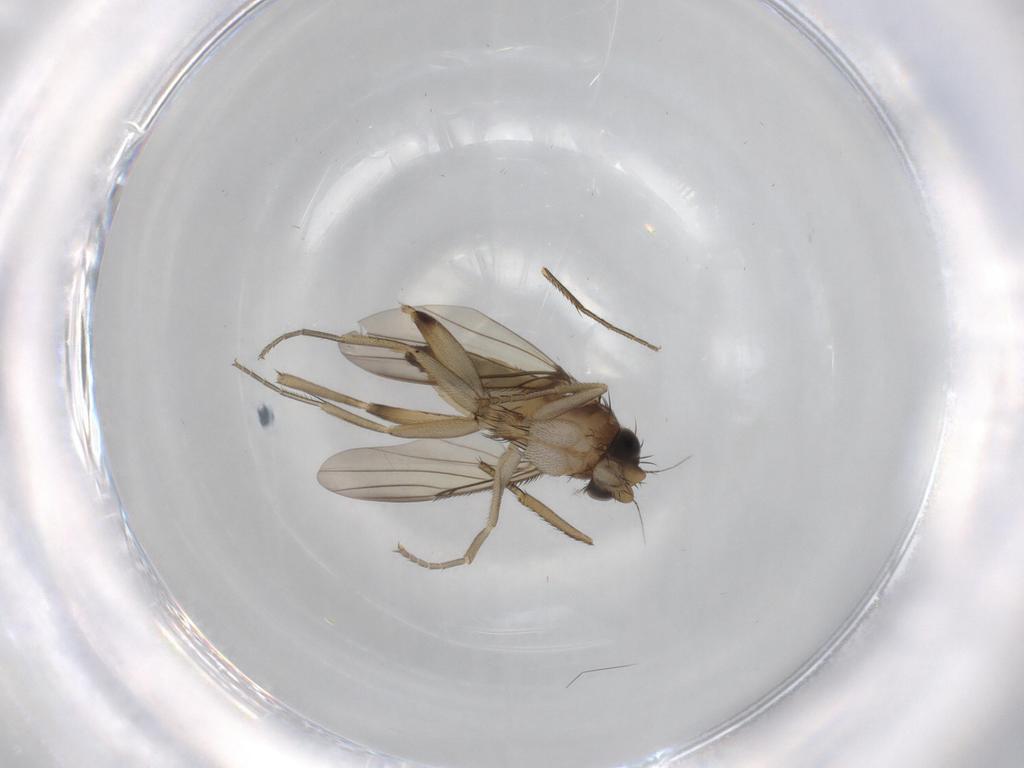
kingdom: Animalia
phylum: Arthropoda
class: Insecta
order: Diptera
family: Phoridae
